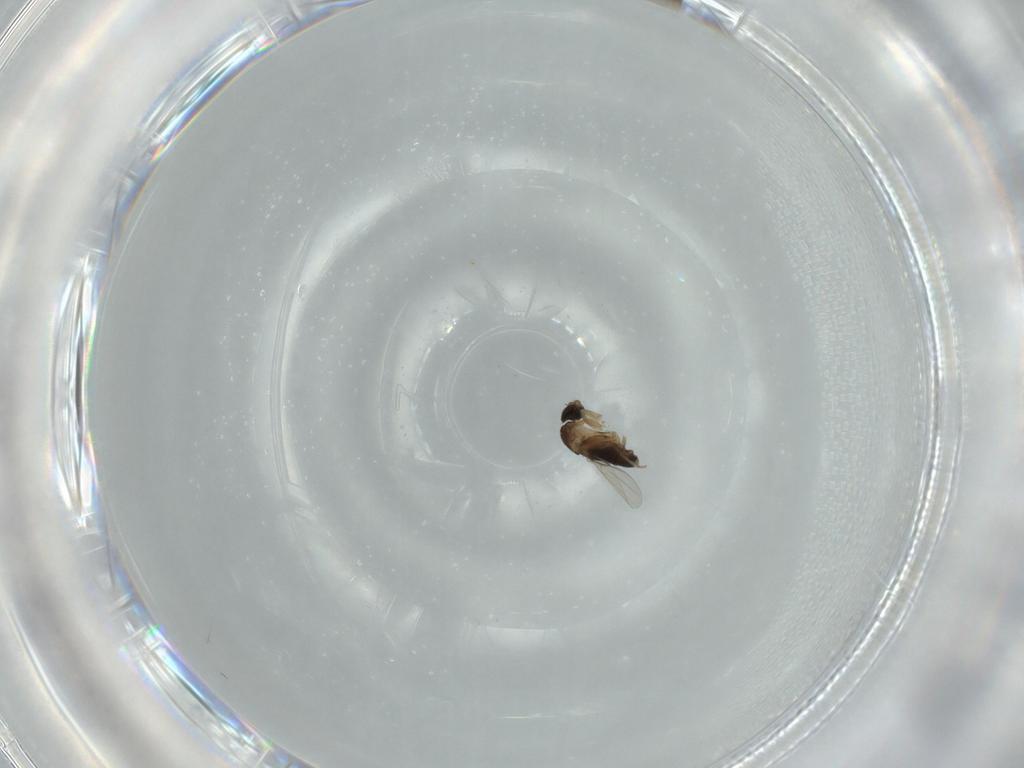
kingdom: Animalia
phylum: Arthropoda
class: Insecta
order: Diptera
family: Phoridae
